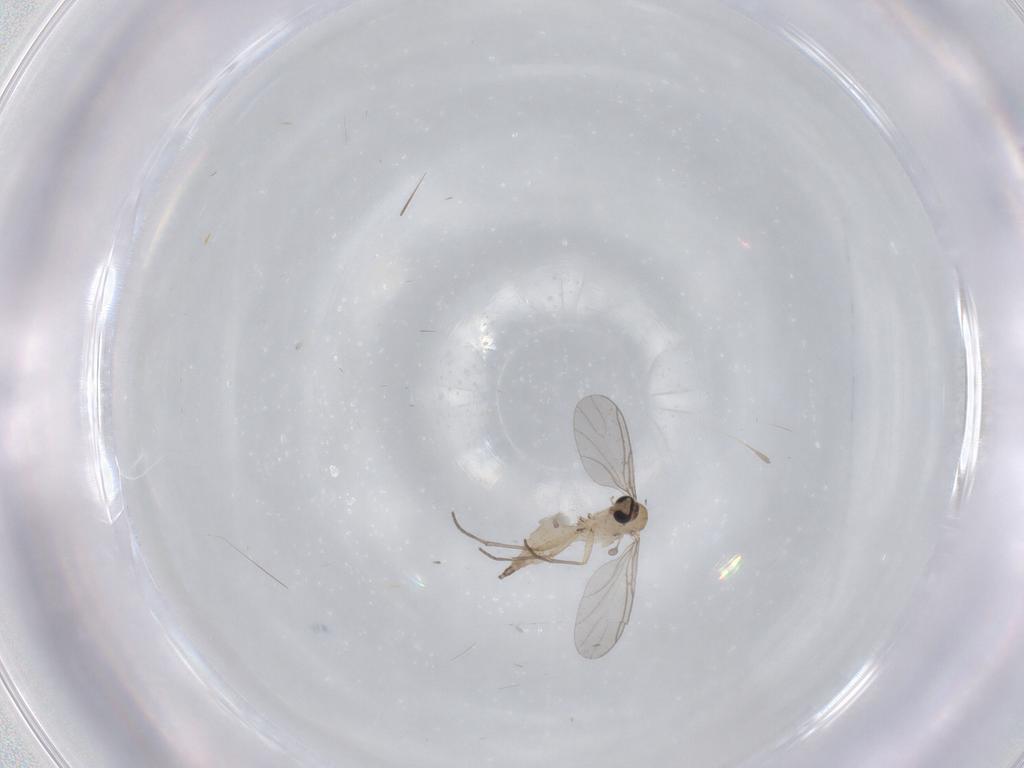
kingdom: Animalia
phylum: Arthropoda
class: Insecta
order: Diptera
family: Sciaridae
